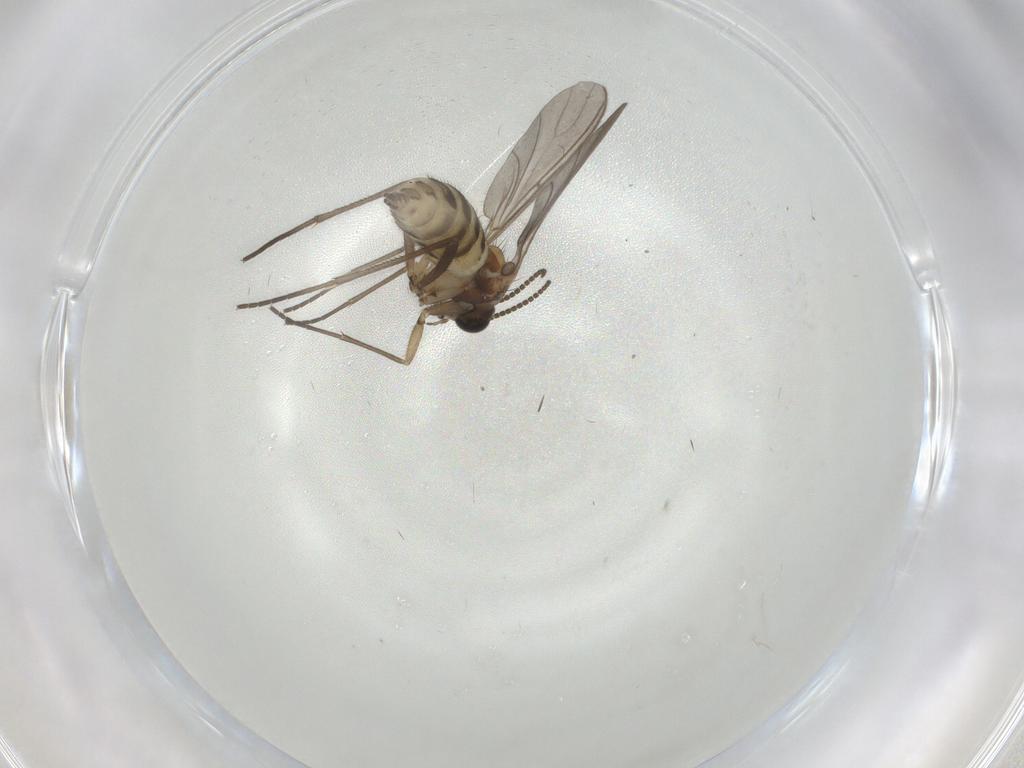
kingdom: Animalia
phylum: Arthropoda
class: Insecta
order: Diptera
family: Sciaridae
